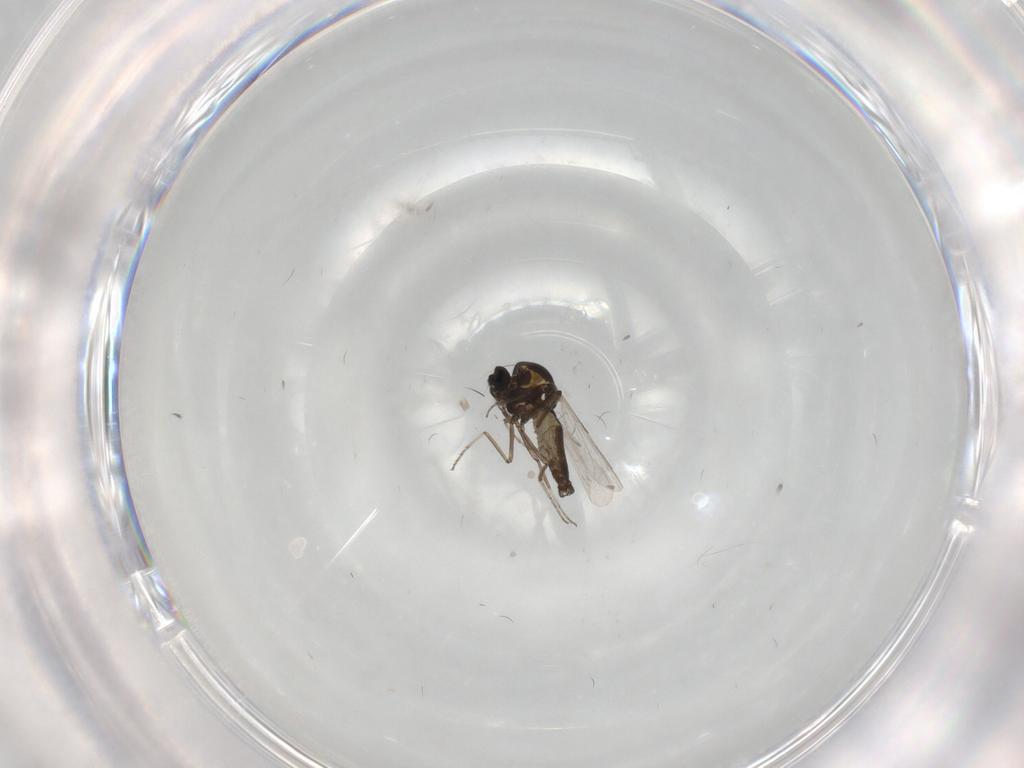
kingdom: Animalia
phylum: Arthropoda
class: Insecta
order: Diptera
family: Ceratopogonidae
